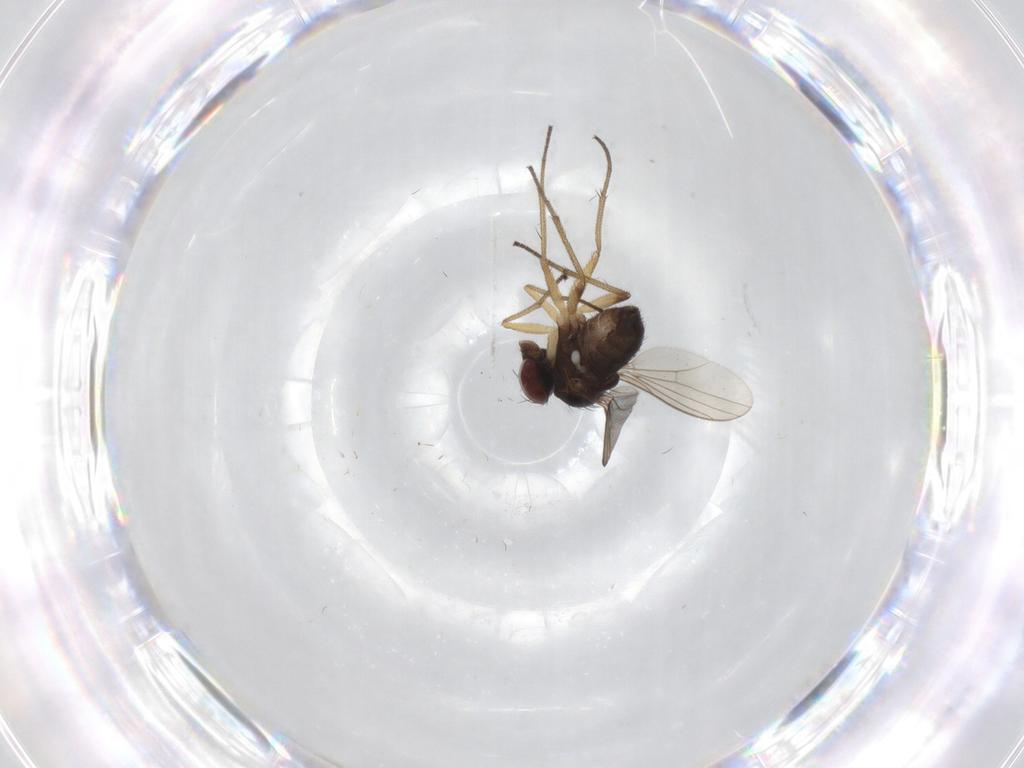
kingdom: Animalia
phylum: Arthropoda
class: Insecta
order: Diptera
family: Dolichopodidae
